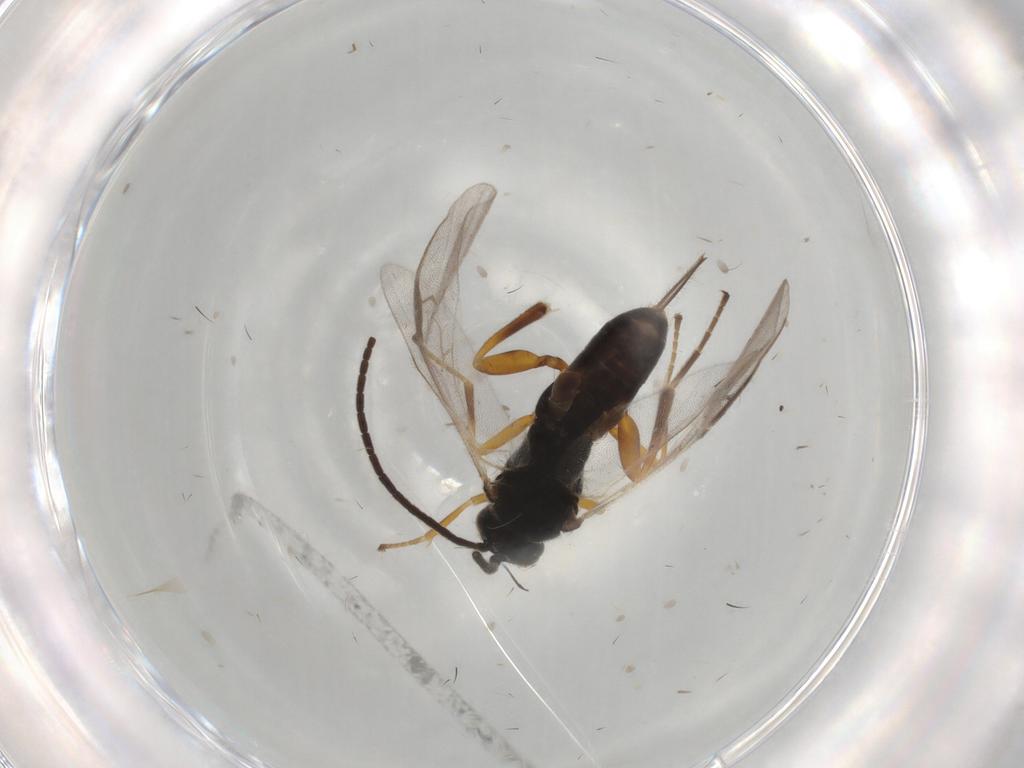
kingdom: Animalia
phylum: Arthropoda
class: Insecta
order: Hymenoptera
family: Braconidae
